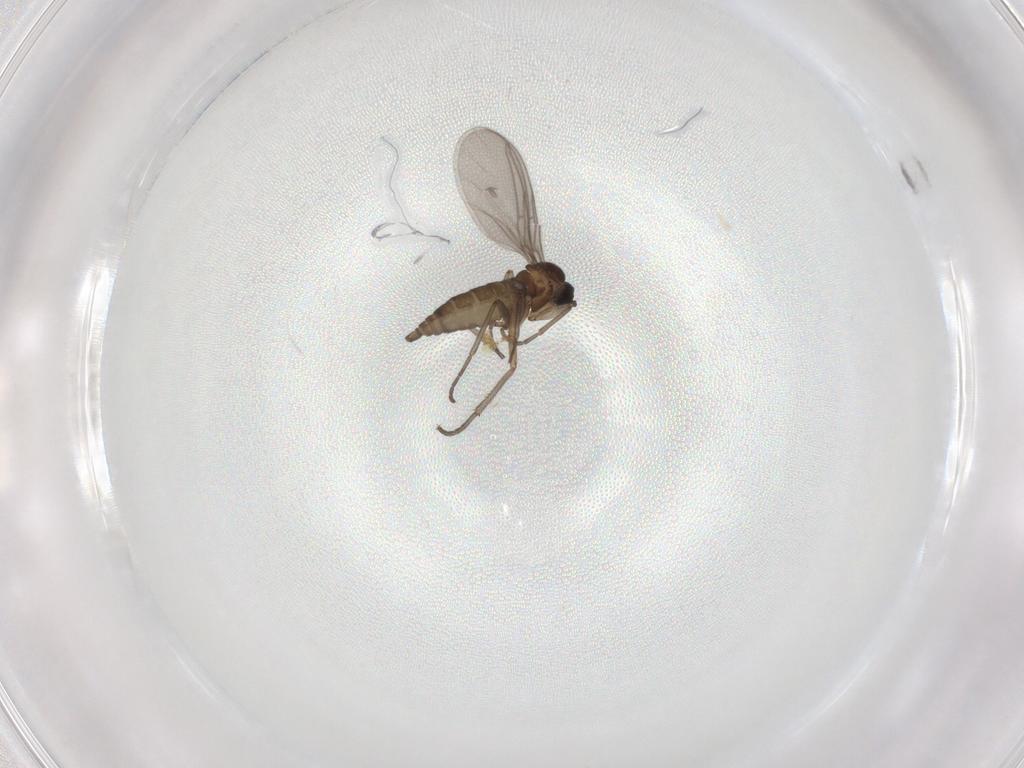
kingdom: Animalia
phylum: Arthropoda
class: Insecta
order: Diptera
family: Sciaridae
